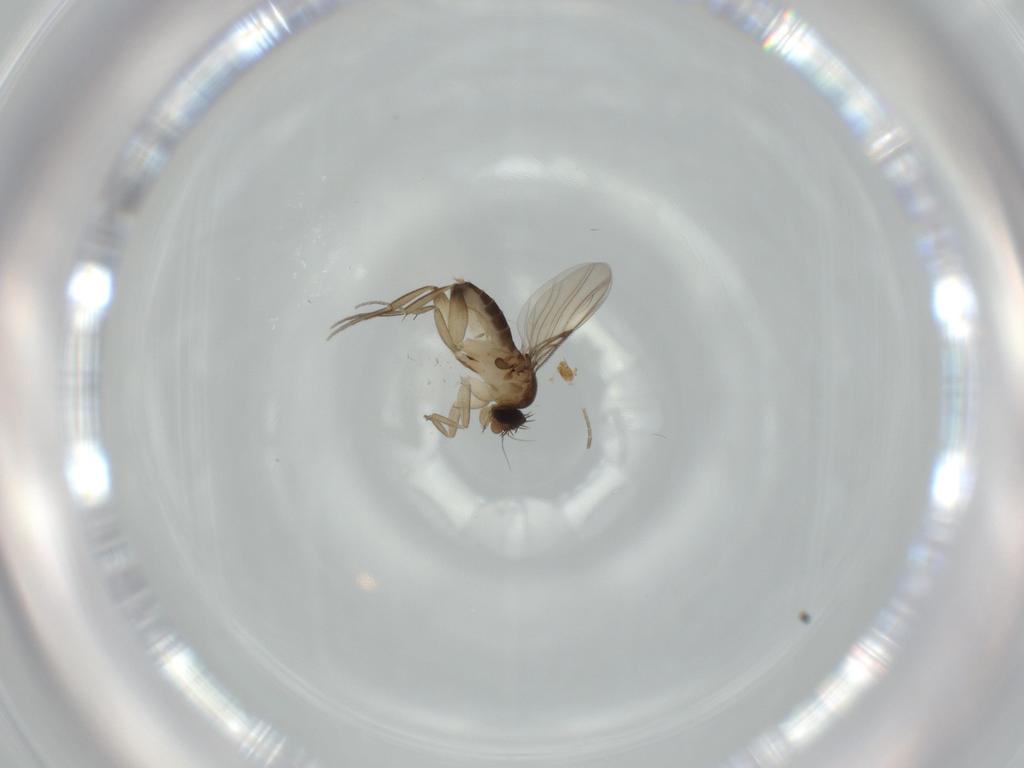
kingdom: Animalia
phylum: Arthropoda
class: Insecta
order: Diptera
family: Phoridae
